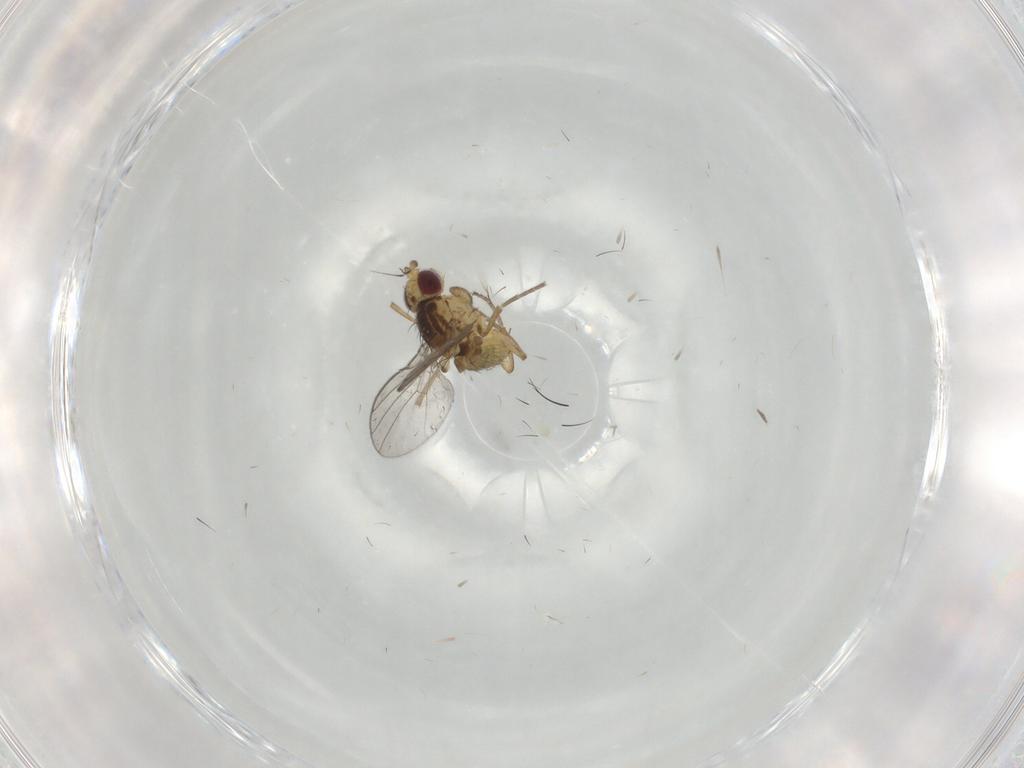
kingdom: Animalia
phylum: Arthropoda
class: Insecta
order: Diptera
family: Agromyzidae
